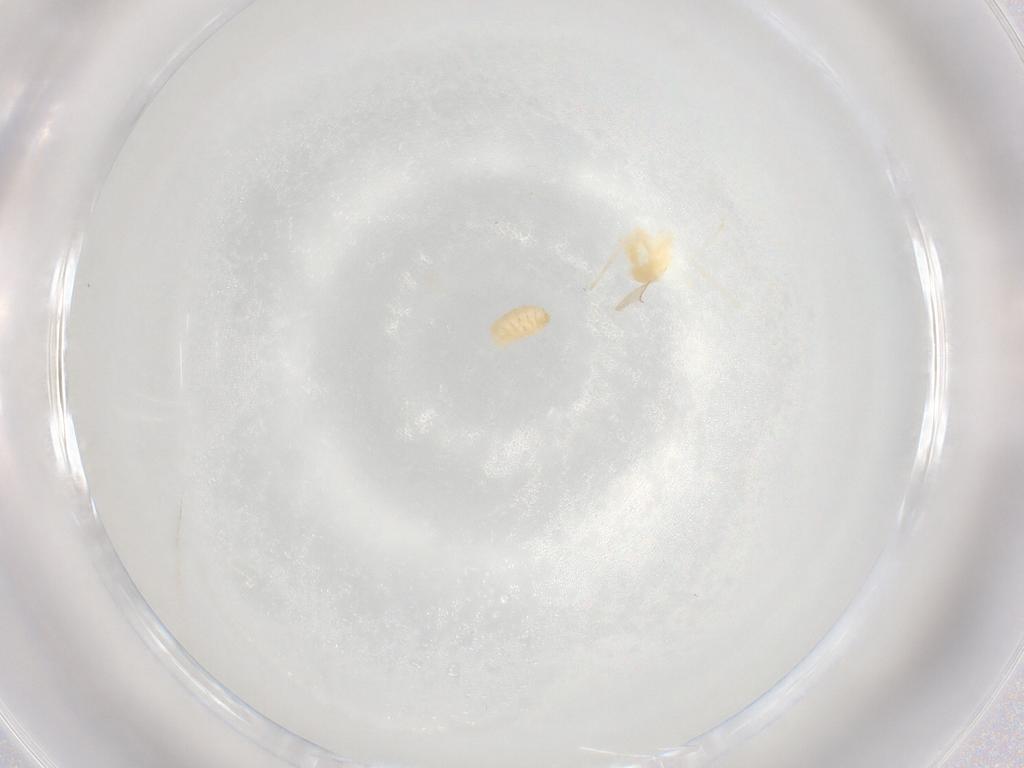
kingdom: Animalia
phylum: Arthropoda
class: Insecta
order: Diptera
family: Cecidomyiidae
